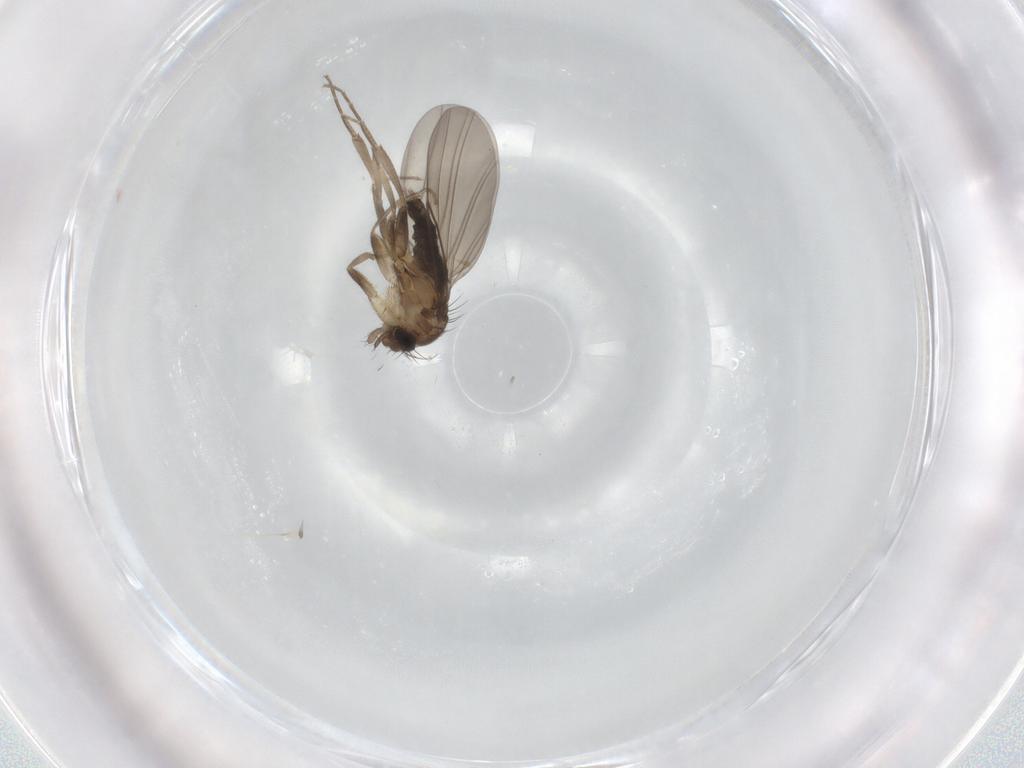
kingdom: Animalia
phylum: Arthropoda
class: Insecta
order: Diptera
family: Phoridae
